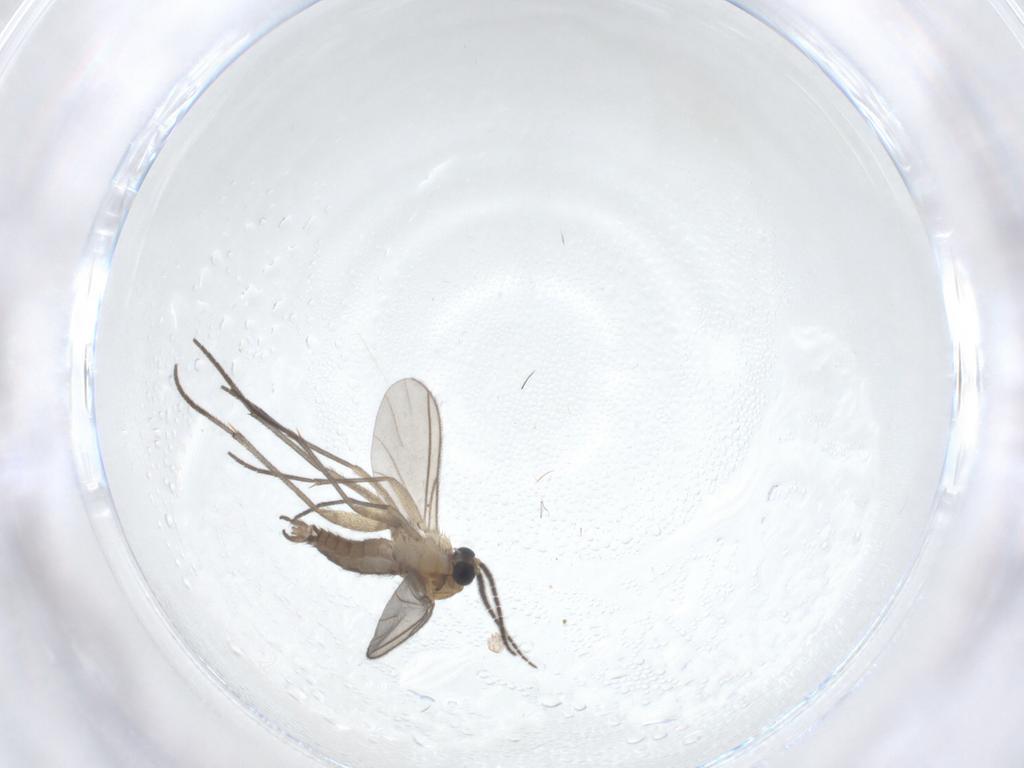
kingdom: Animalia
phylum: Arthropoda
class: Insecta
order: Diptera
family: Sciaridae
